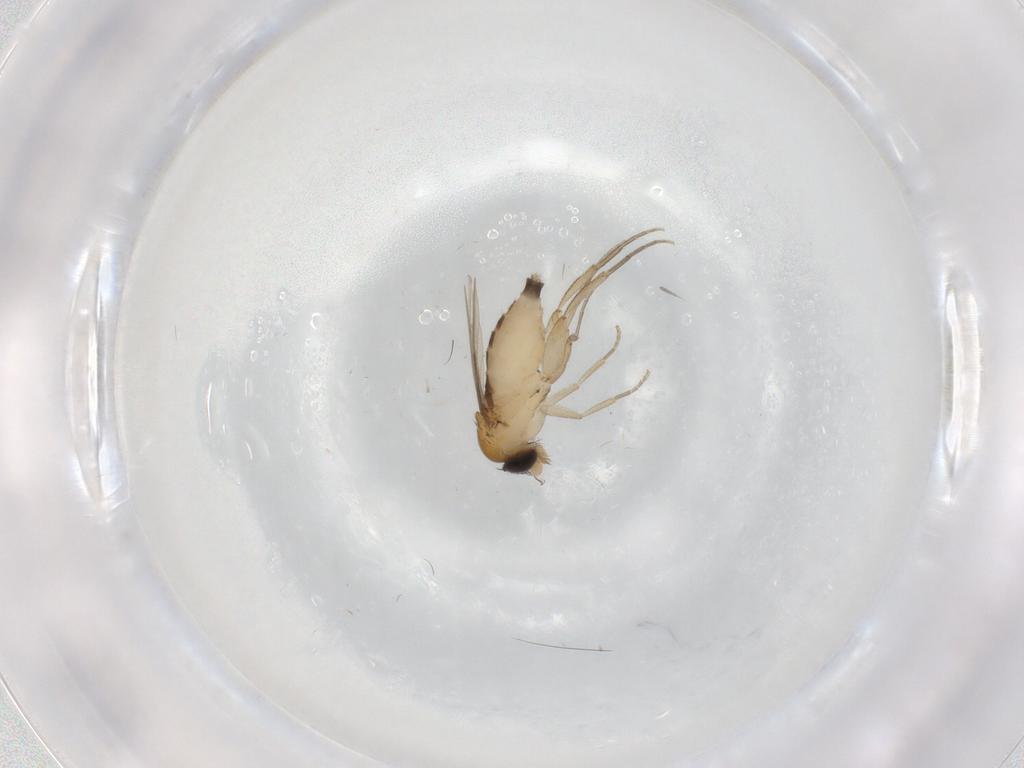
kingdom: Animalia
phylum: Arthropoda
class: Insecta
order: Diptera
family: Phoridae
